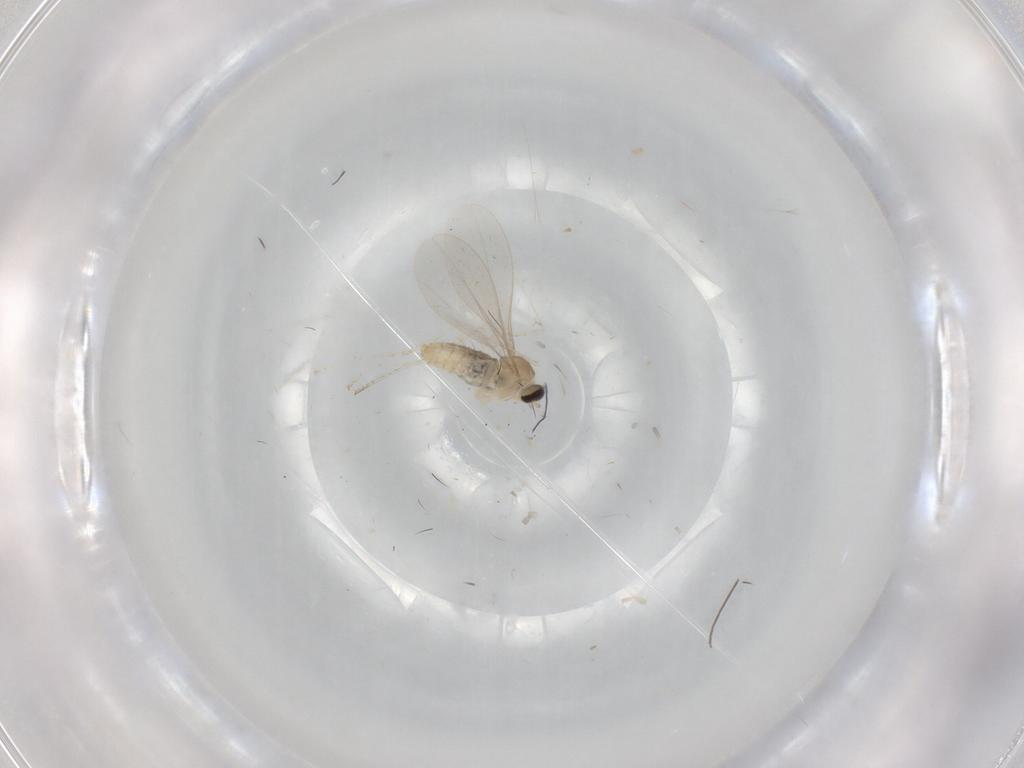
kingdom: Animalia
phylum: Arthropoda
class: Insecta
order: Diptera
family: Cecidomyiidae
